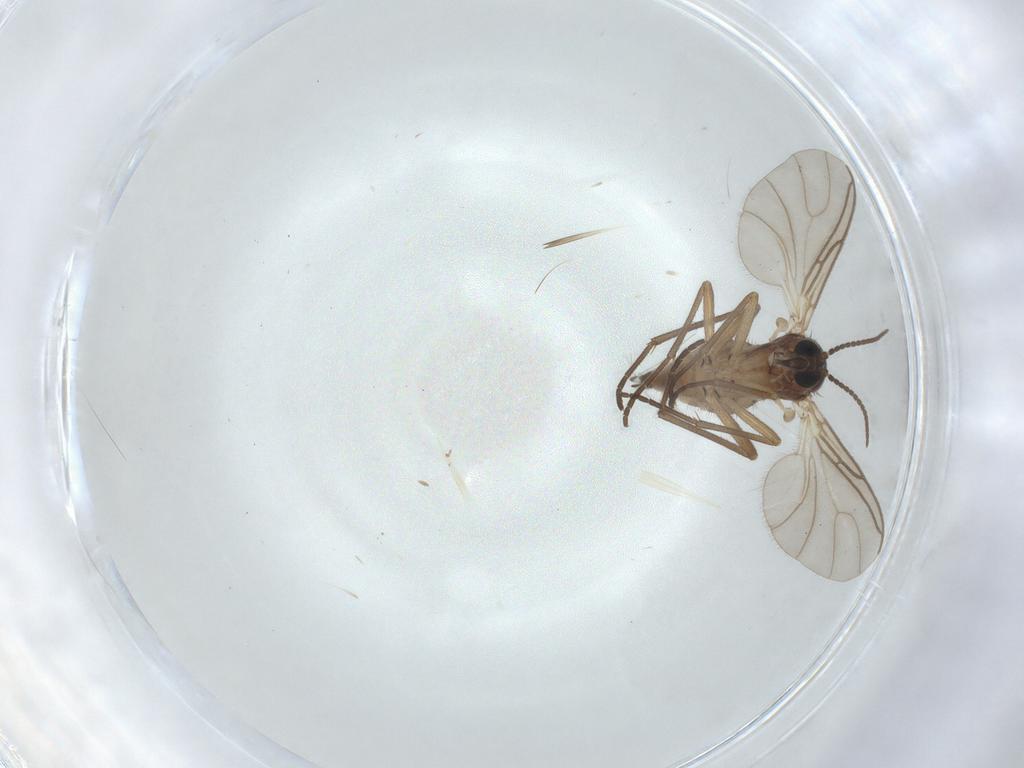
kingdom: Animalia
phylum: Arthropoda
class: Insecta
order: Diptera
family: Sciaridae
